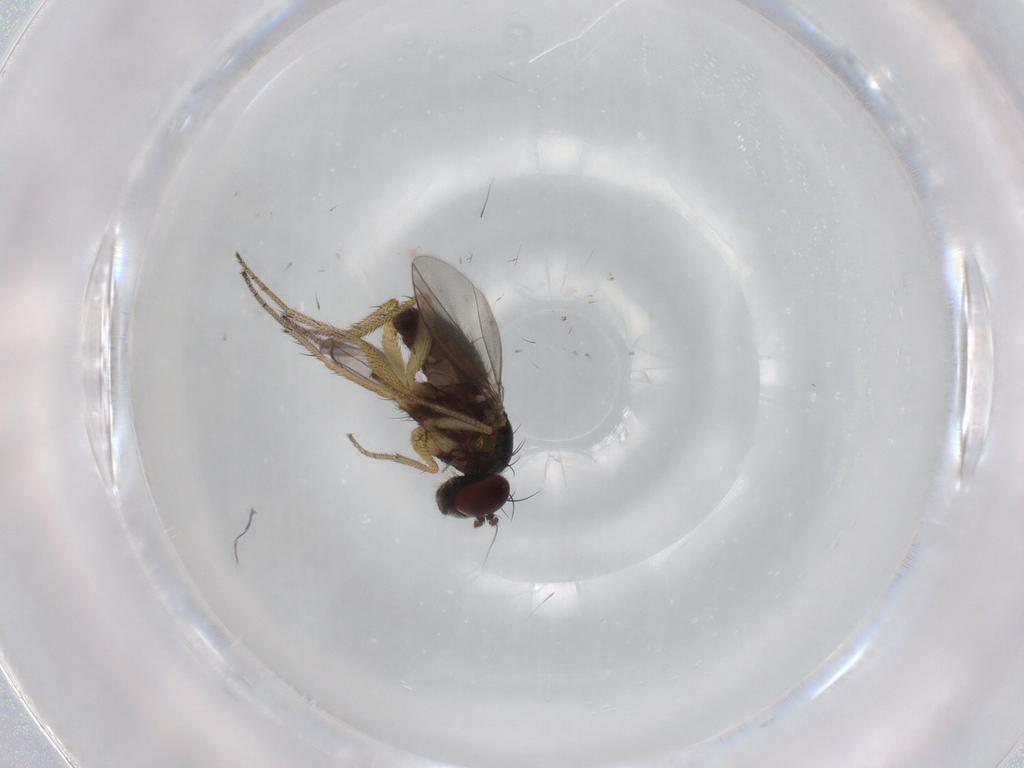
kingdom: Animalia
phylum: Arthropoda
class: Insecta
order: Diptera
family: Dolichopodidae
